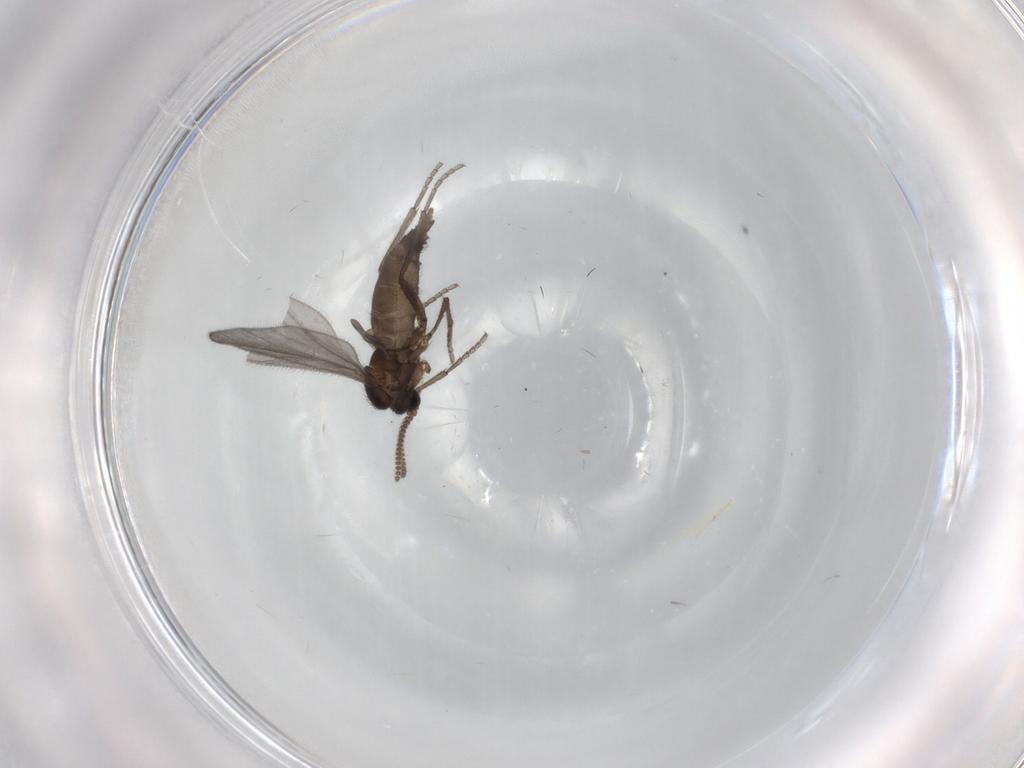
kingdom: Animalia
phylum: Arthropoda
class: Insecta
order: Diptera
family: Sciaridae
